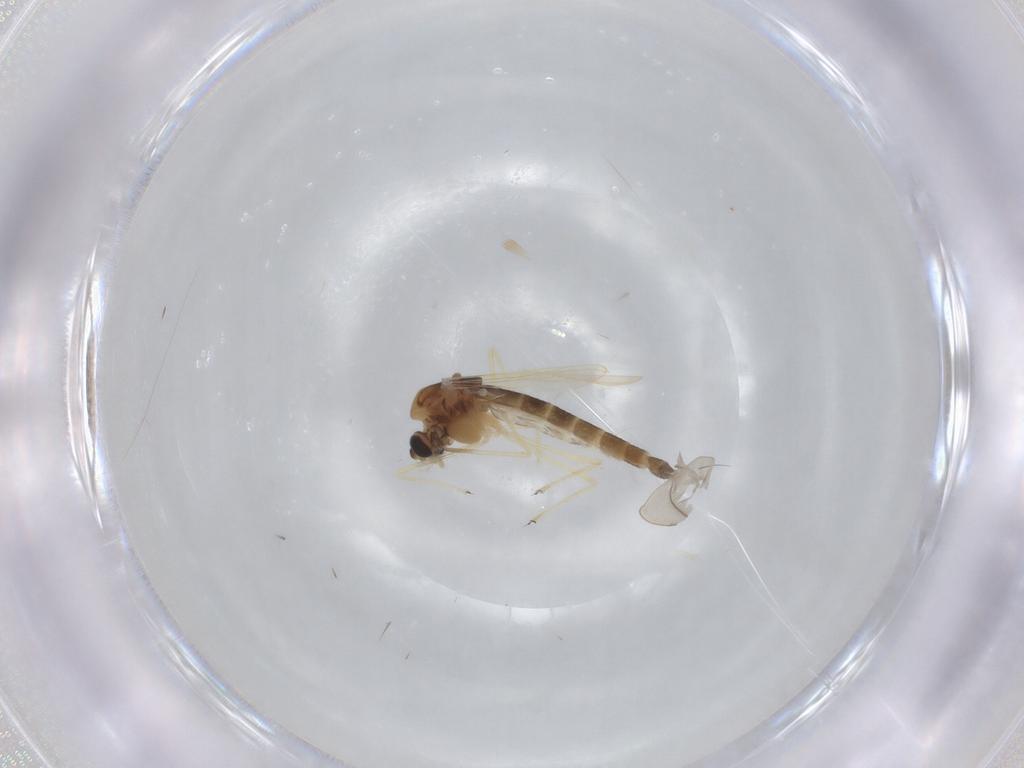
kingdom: Animalia
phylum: Arthropoda
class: Insecta
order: Diptera
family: Chironomidae
